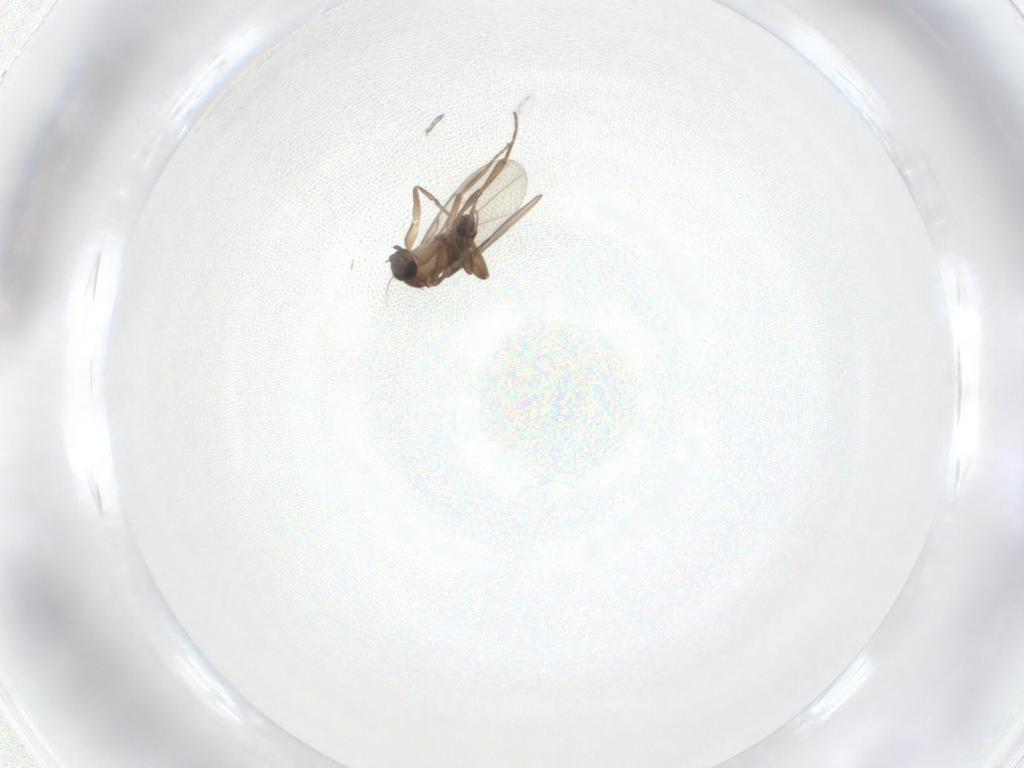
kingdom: Animalia
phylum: Arthropoda
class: Insecta
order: Diptera
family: Phoridae
